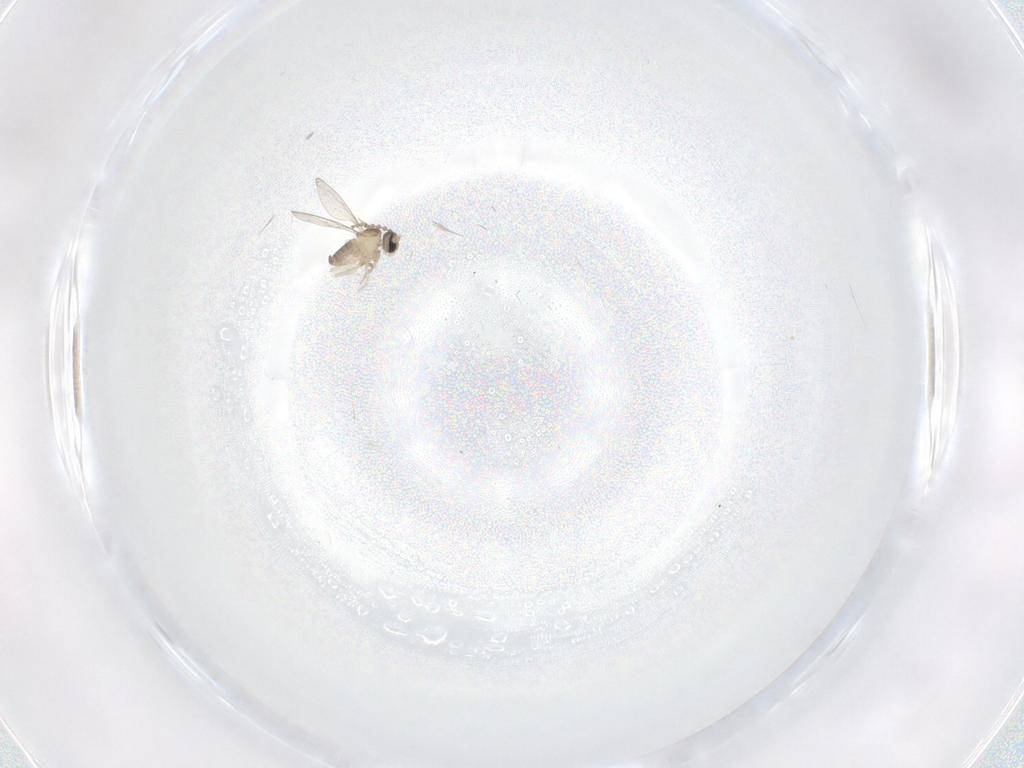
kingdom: Animalia
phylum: Arthropoda
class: Insecta
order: Diptera
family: Cecidomyiidae
